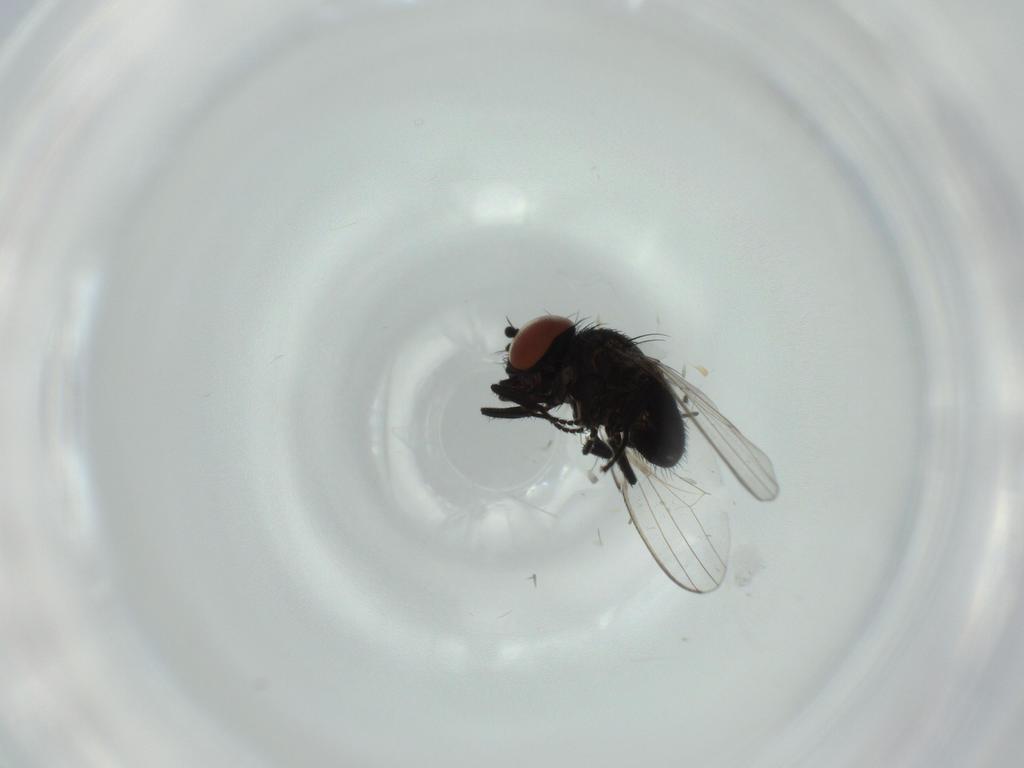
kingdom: Animalia
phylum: Arthropoda
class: Insecta
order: Diptera
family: Milichiidae
